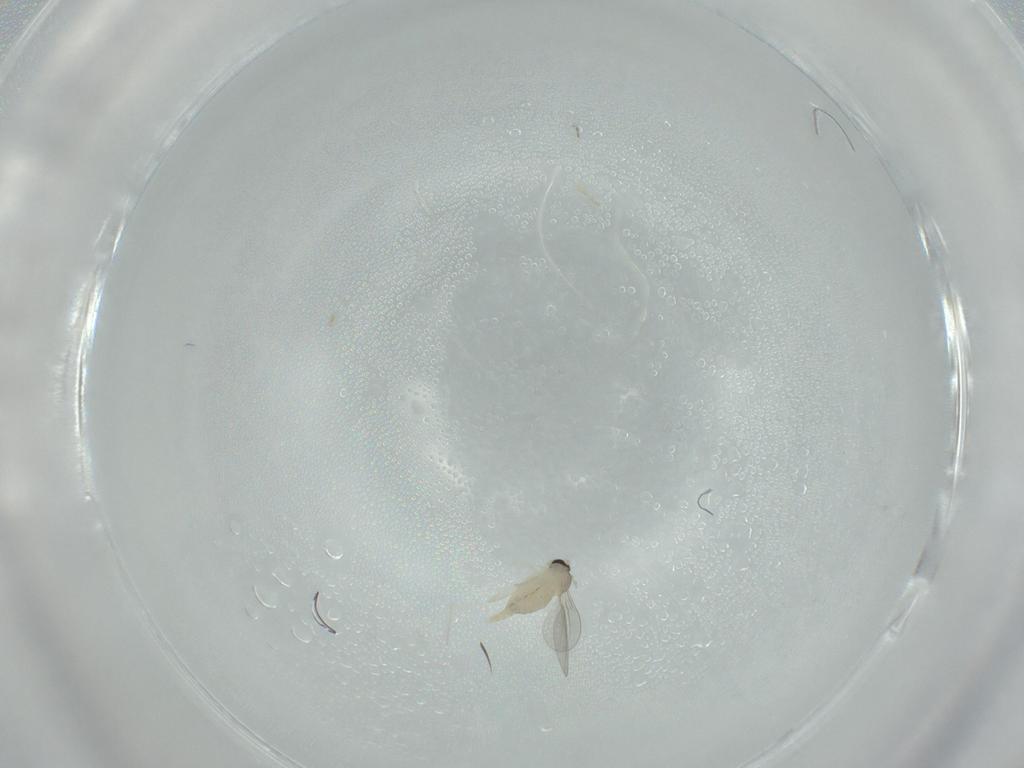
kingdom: Animalia
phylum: Arthropoda
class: Insecta
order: Diptera
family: Cecidomyiidae
